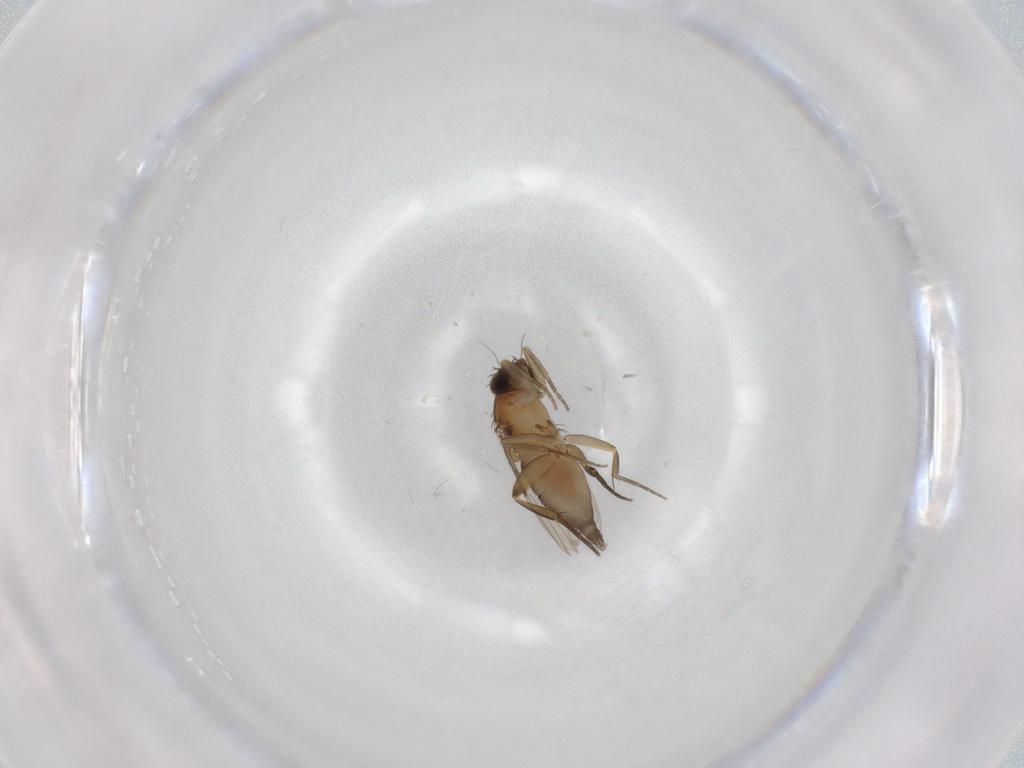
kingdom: Animalia
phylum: Arthropoda
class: Insecta
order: Diptera
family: Phoridae
